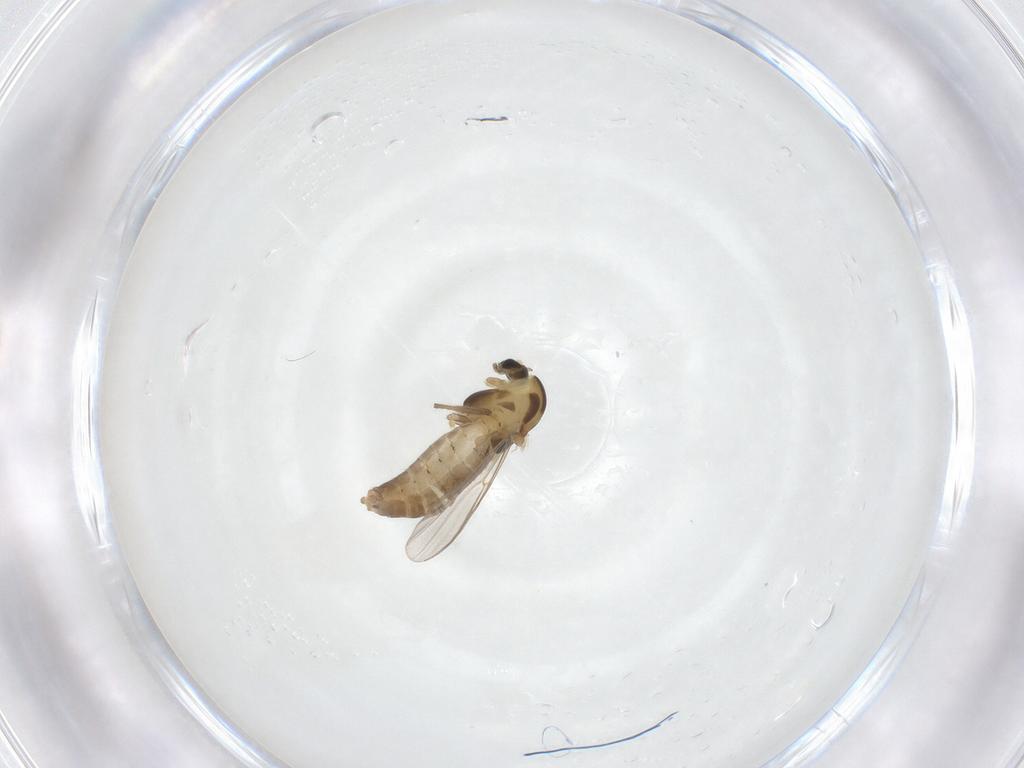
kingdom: Animalia
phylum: Arthropoda
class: Insecta
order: Diptera
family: Chironomidae
